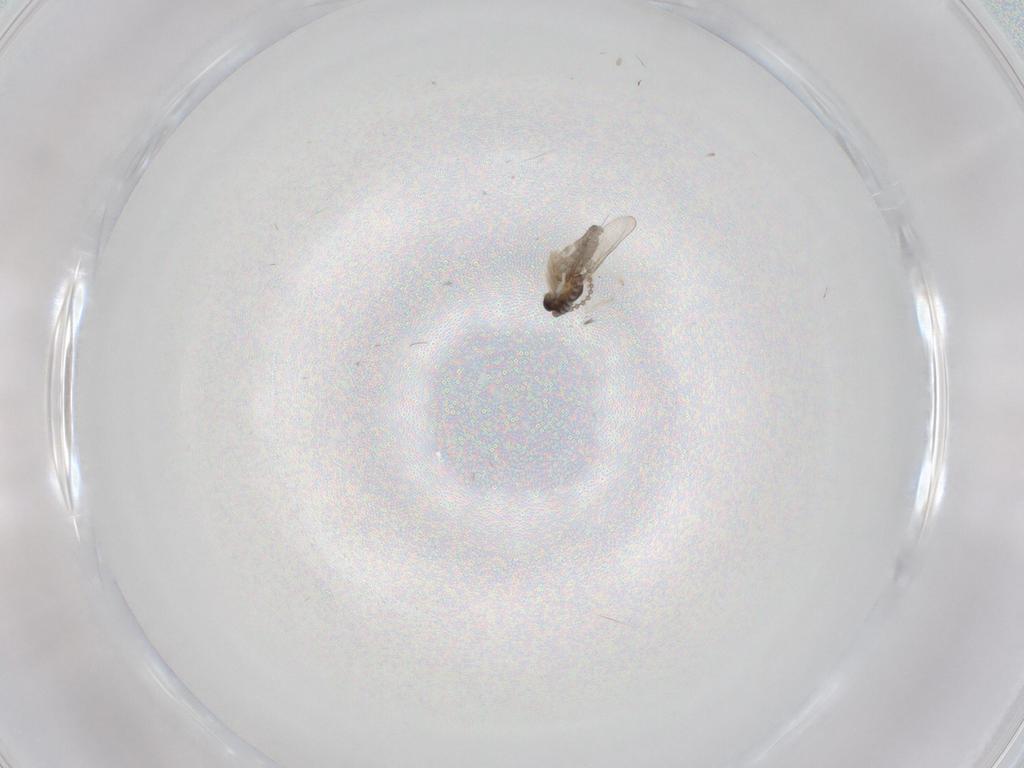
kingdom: Animalia
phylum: Arthropoda
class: Insecta
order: Diptera
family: Cecidomyiidae
